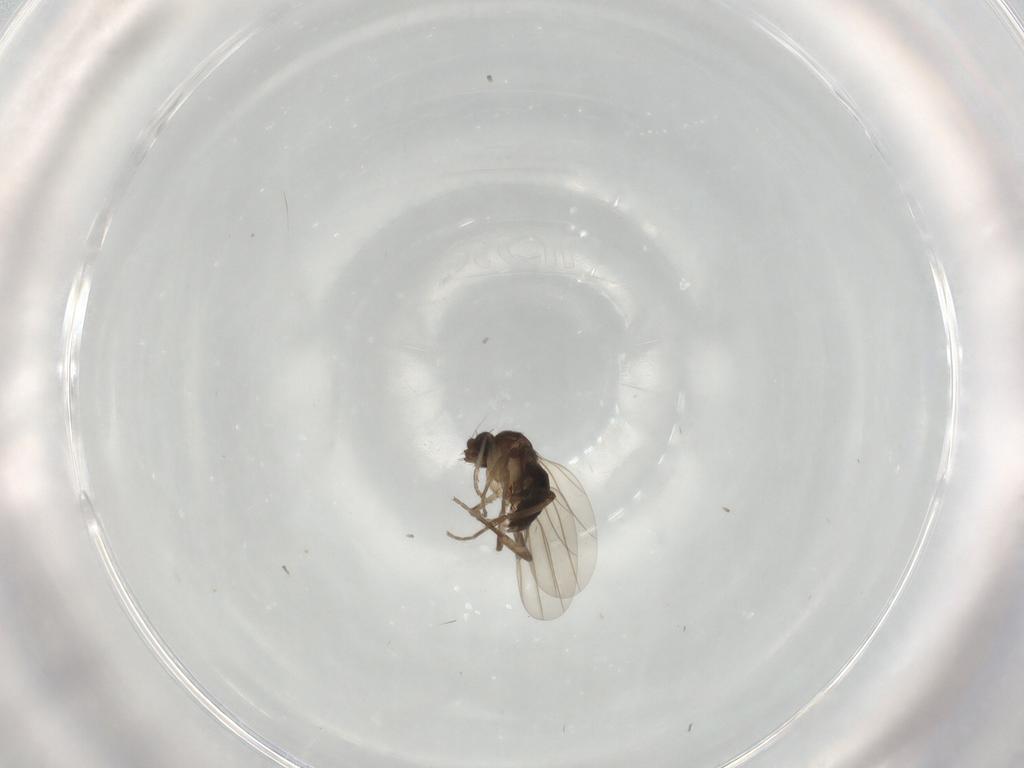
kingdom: Animalia
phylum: Arthropoda
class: Insecta
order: Diptera
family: Phoridae
